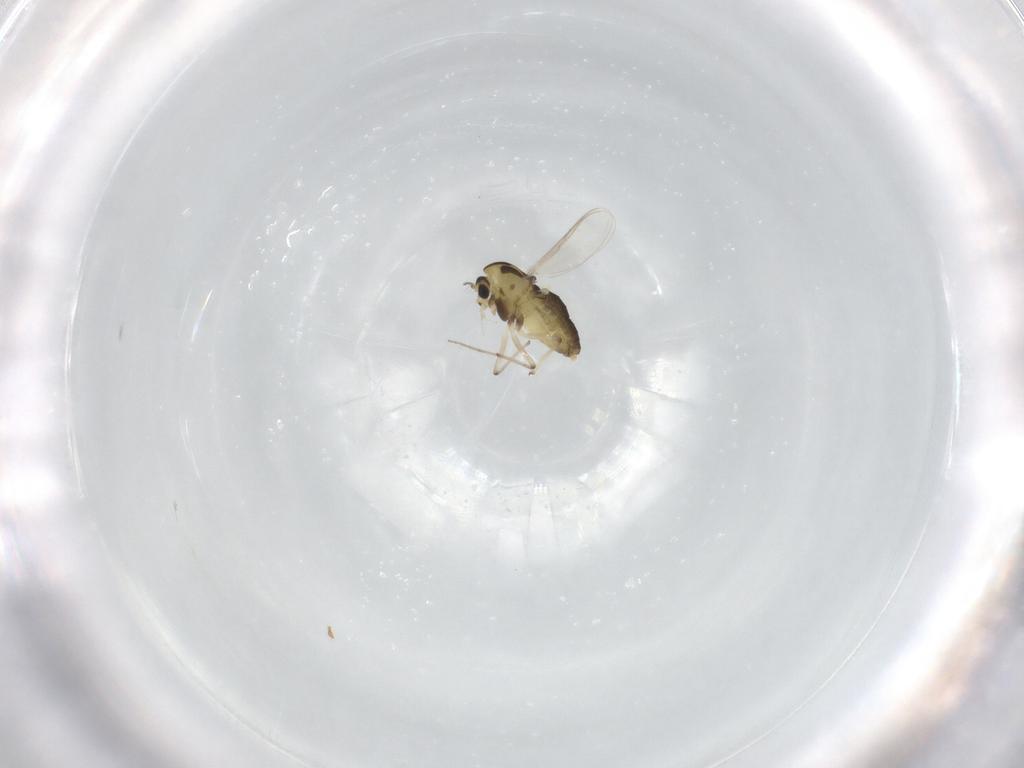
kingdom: Animalia
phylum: Arthropoda
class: Insecta
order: Diptera
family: Chironomidae
